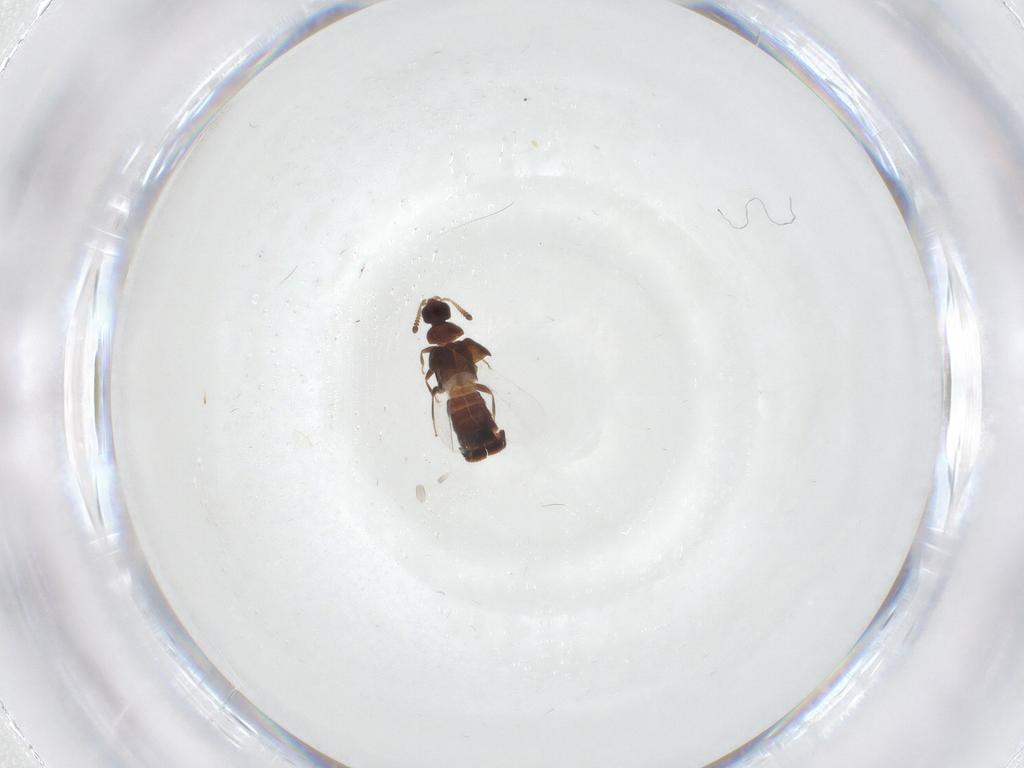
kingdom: Animalia
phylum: Arthropoda
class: Insecta
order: Coleoptera
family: Staphylinidae
